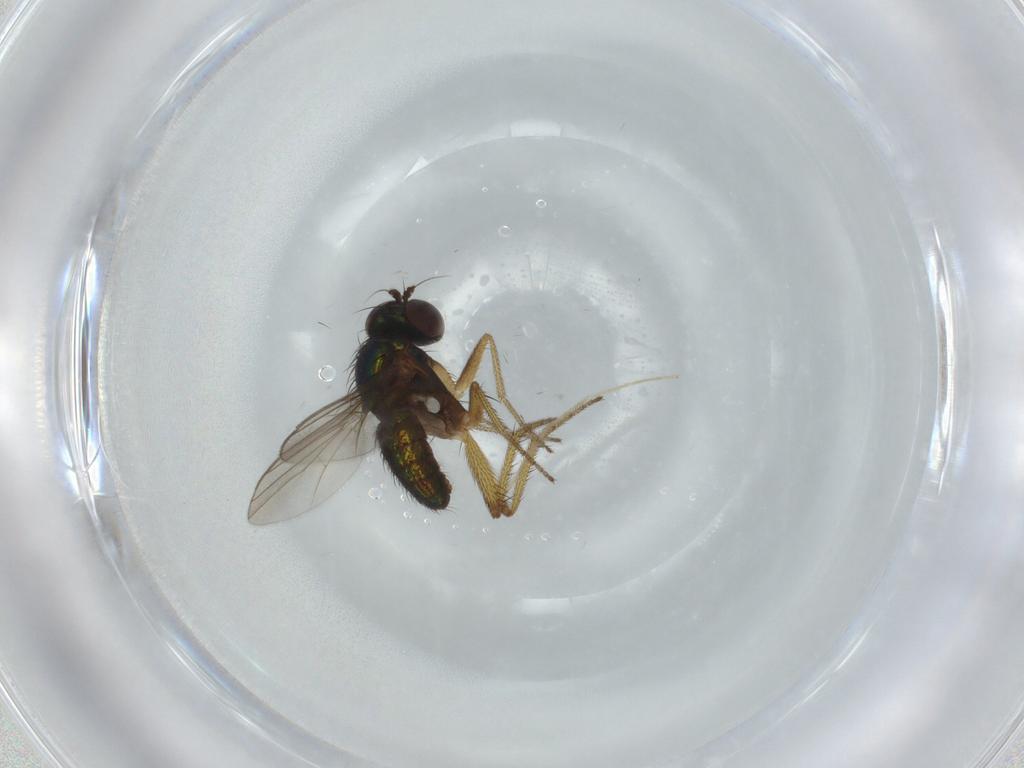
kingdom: Animalia
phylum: Arthropoda
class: Insecta
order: Diptera
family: Dolichopodidae
